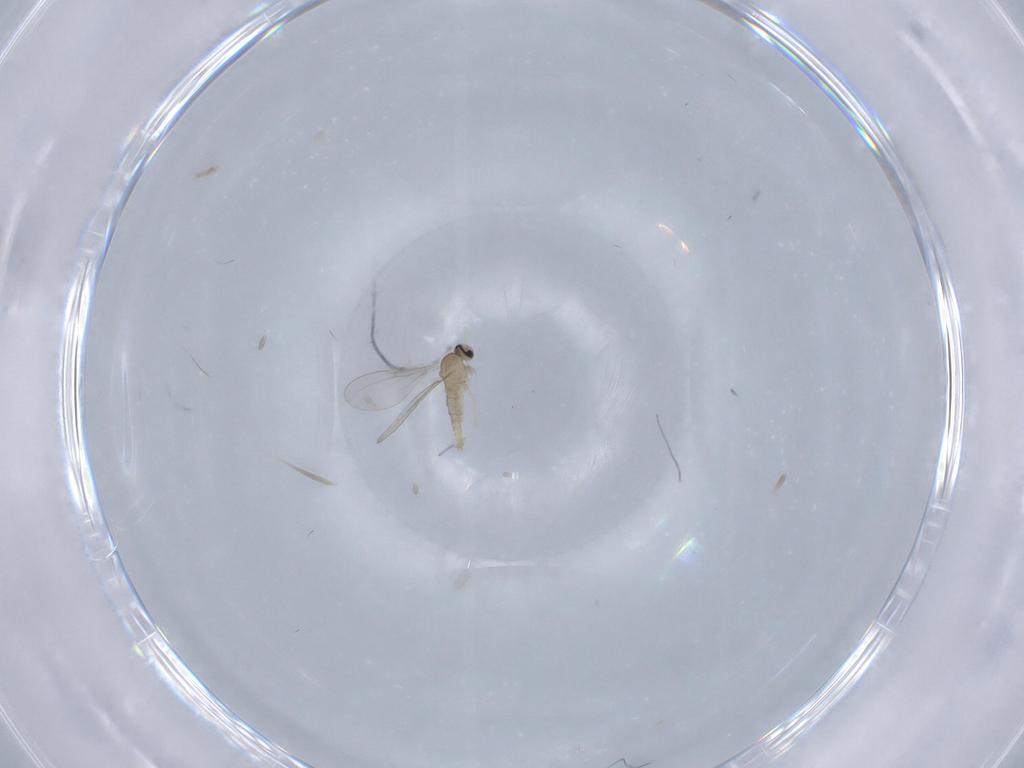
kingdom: Animalia
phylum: Arthropoda
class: Insecta
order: Diptera
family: Cecidomyiidae
